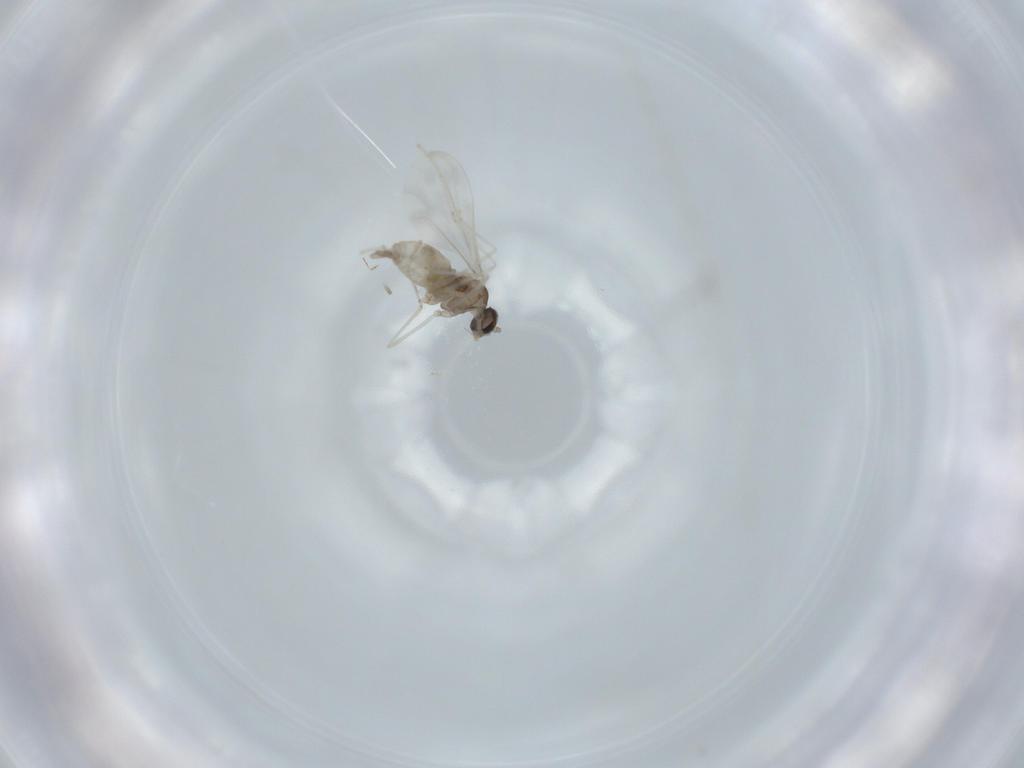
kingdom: Animalia
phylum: Arthropoda
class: Insecta
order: Diptera
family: Cecidomyiidae
